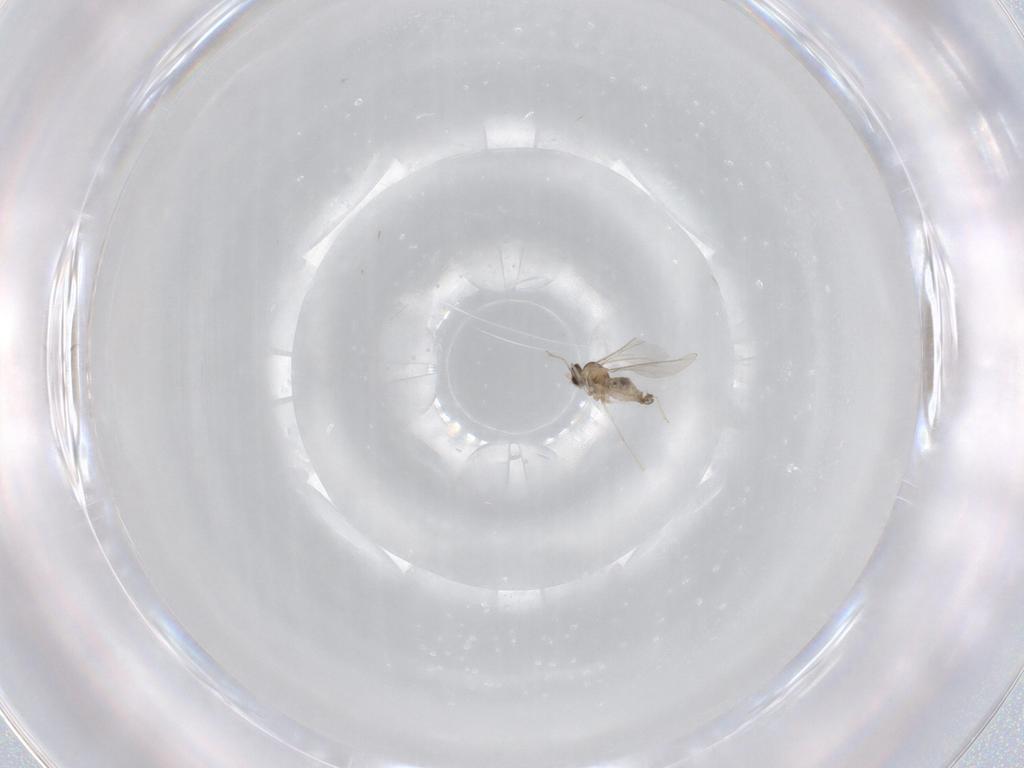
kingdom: Animalia
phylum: Arthropoda
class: Insecta
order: Diptera
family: Cecidomyiidae
